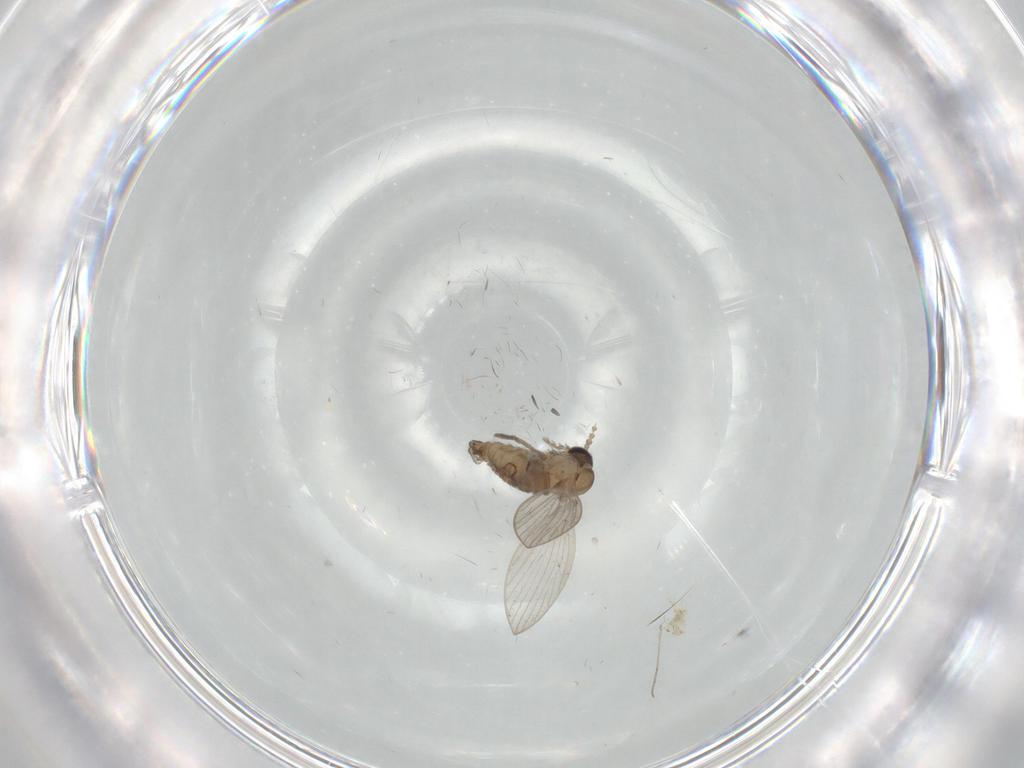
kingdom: Animalia
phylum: Arthropoda
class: Insecta
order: Diptera
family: Psychodidae
